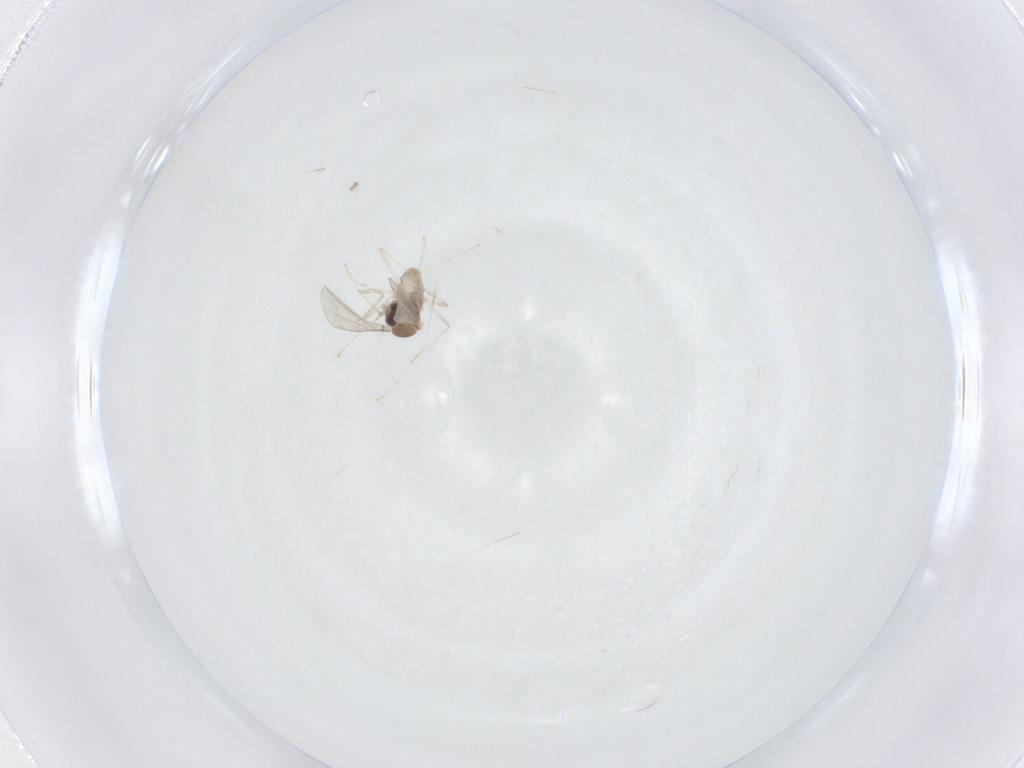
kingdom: Animalia
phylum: Arthropoda
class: Insecta
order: Diptera
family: Cecidomyiidae
